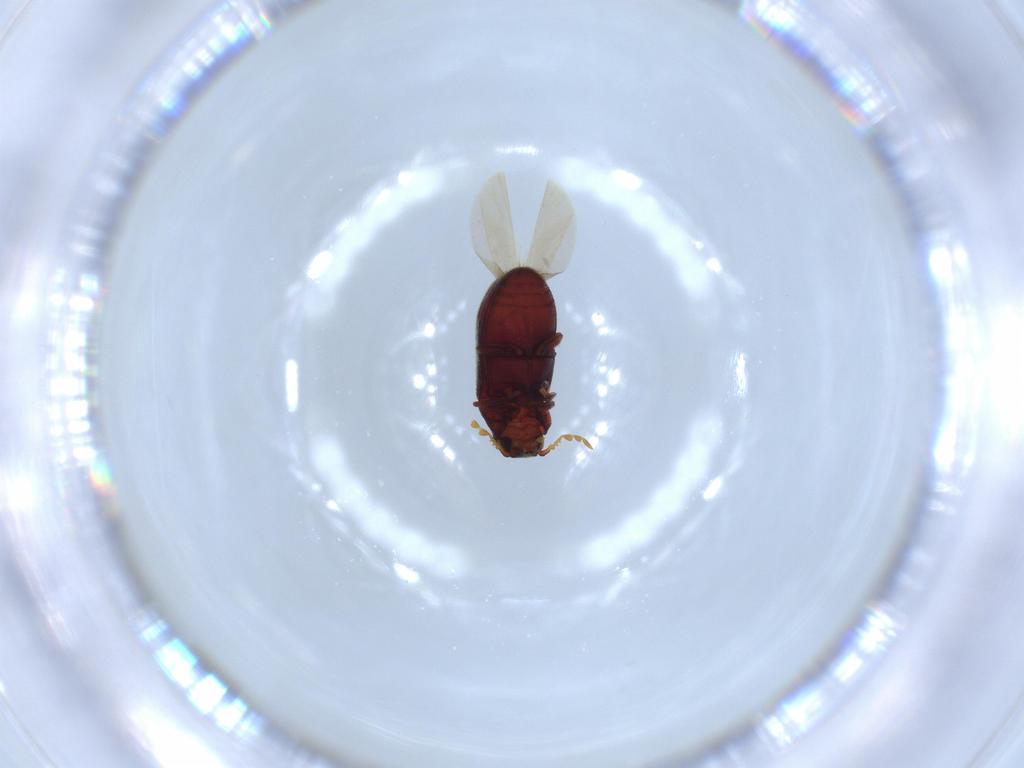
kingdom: Animalia
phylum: Arthropoda
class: Insecta
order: Coleoptera
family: Anobiidae
